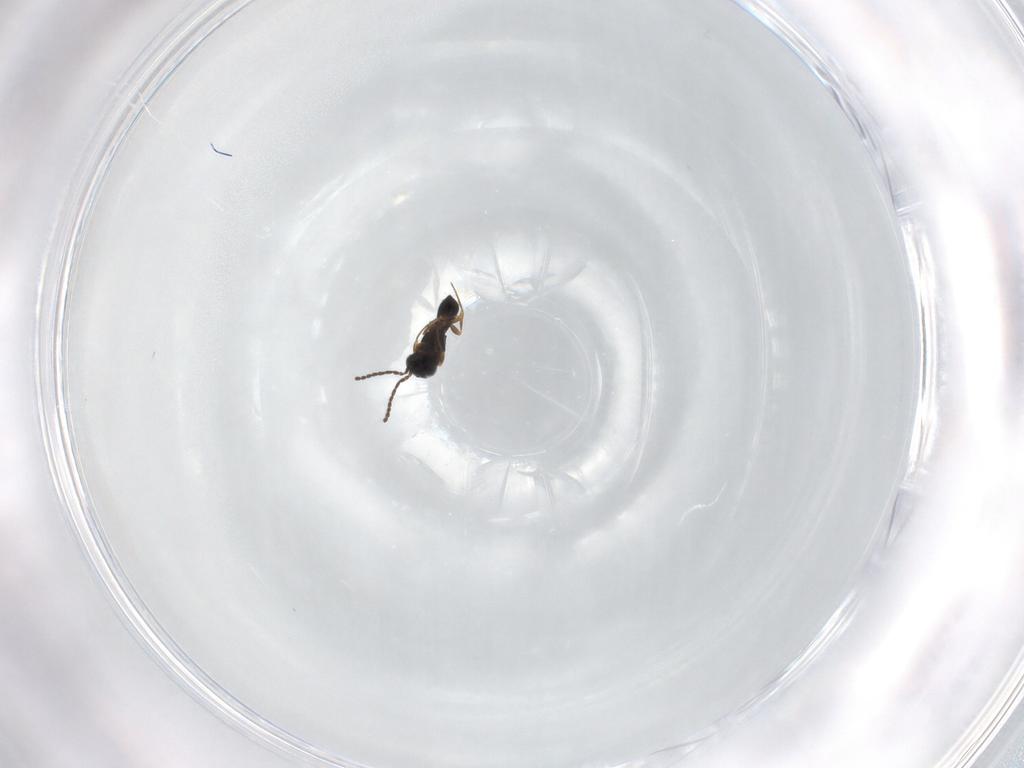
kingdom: Animalia
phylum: Arthropoda
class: Insecta
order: Hymenoptera
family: Scelionidae
